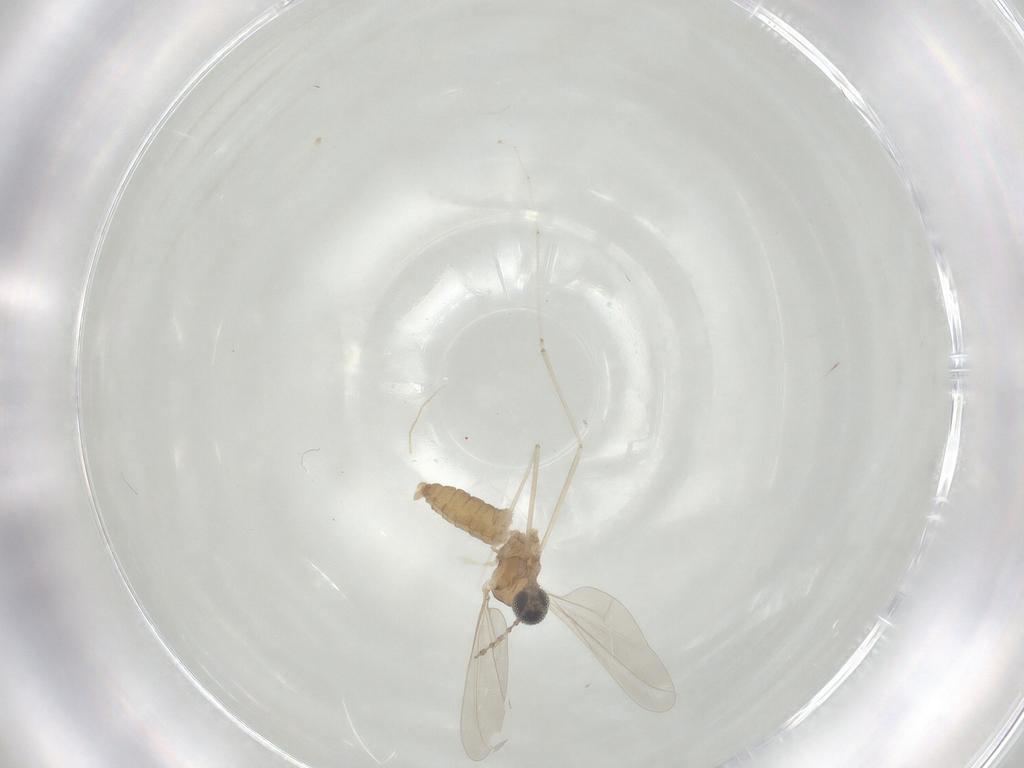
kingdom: Animalia
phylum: Arthropoda
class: Insecta
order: Diptera
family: Cecidomyiidae
